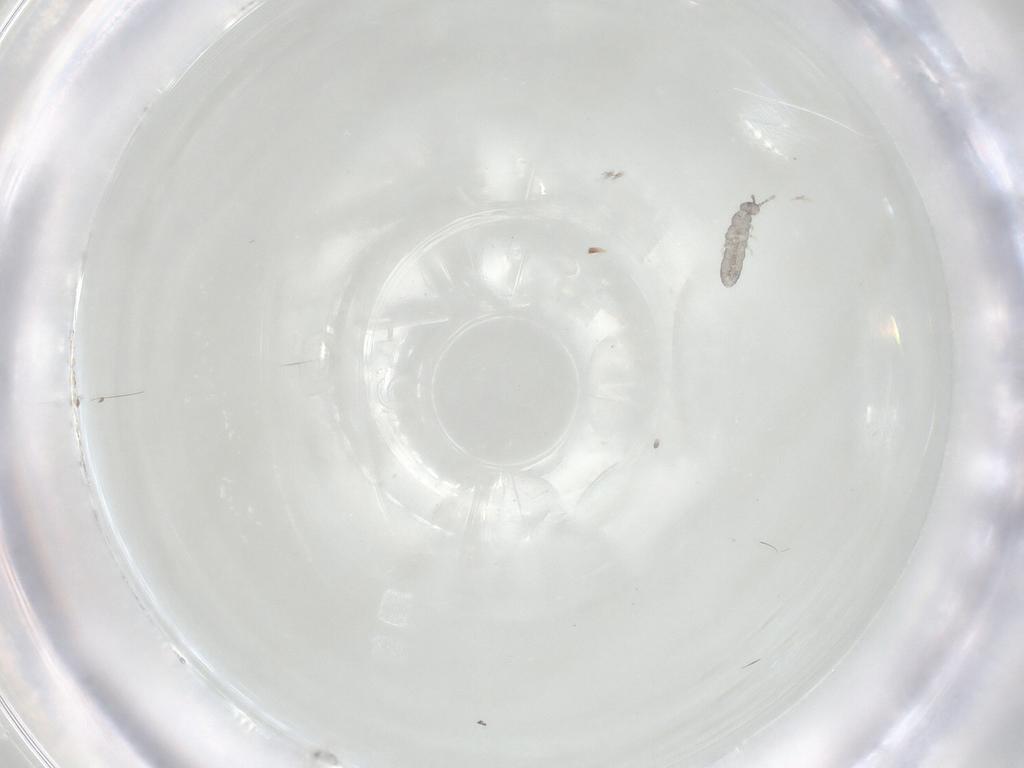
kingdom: Animalia
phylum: Arthropoda
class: Collembola
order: Entomobryomorpha
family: Isotomidae
